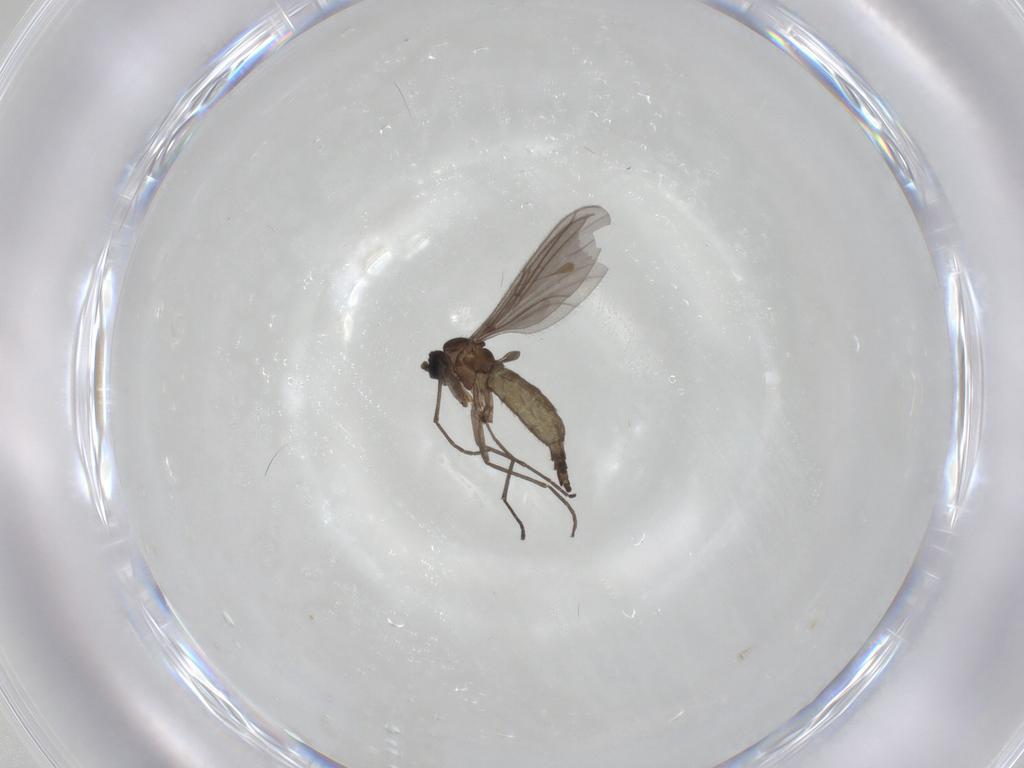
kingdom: Animalia
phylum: Arthropoda
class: Insecta
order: Diptera
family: Sciaridae
